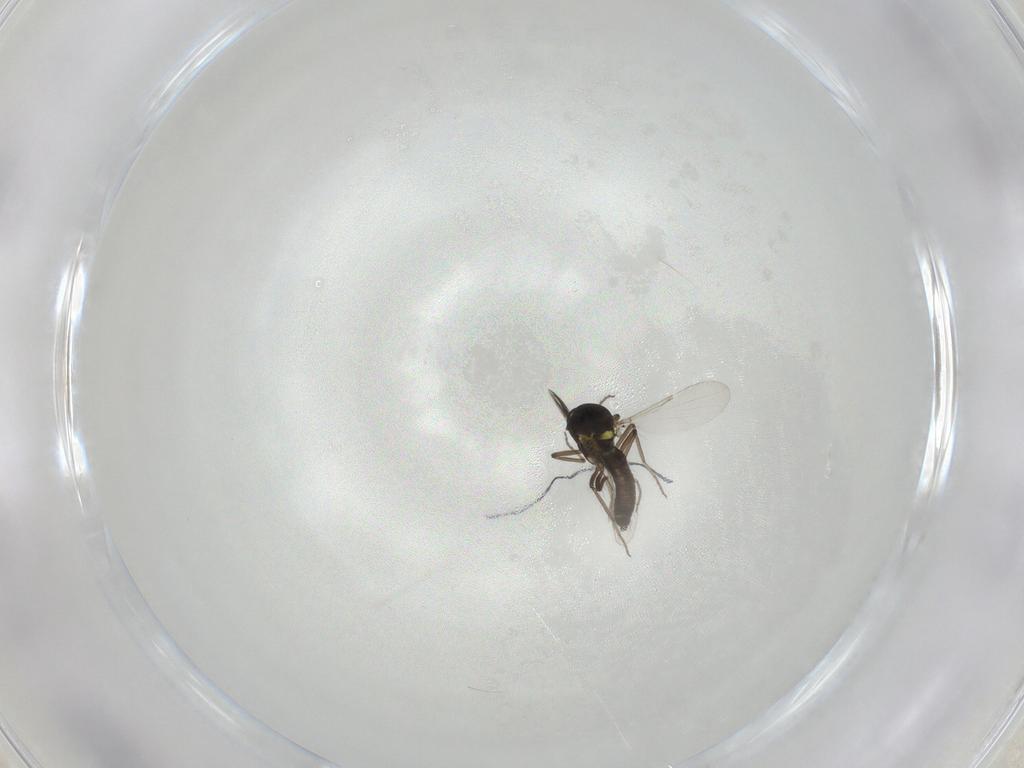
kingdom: Animalia
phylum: Arthropoda
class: Insecta
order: Diptera
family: Ceratopogonidae
